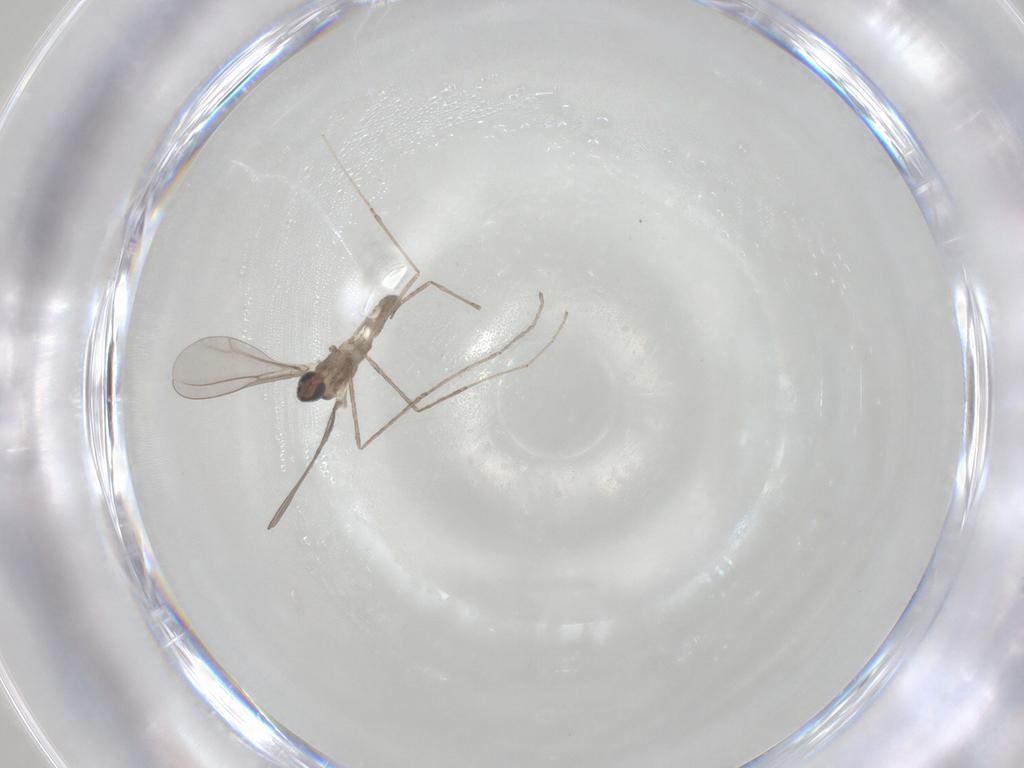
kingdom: Animalia
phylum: Arthropoda
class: Insecta
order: Diptera
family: Cecidomyiidae
